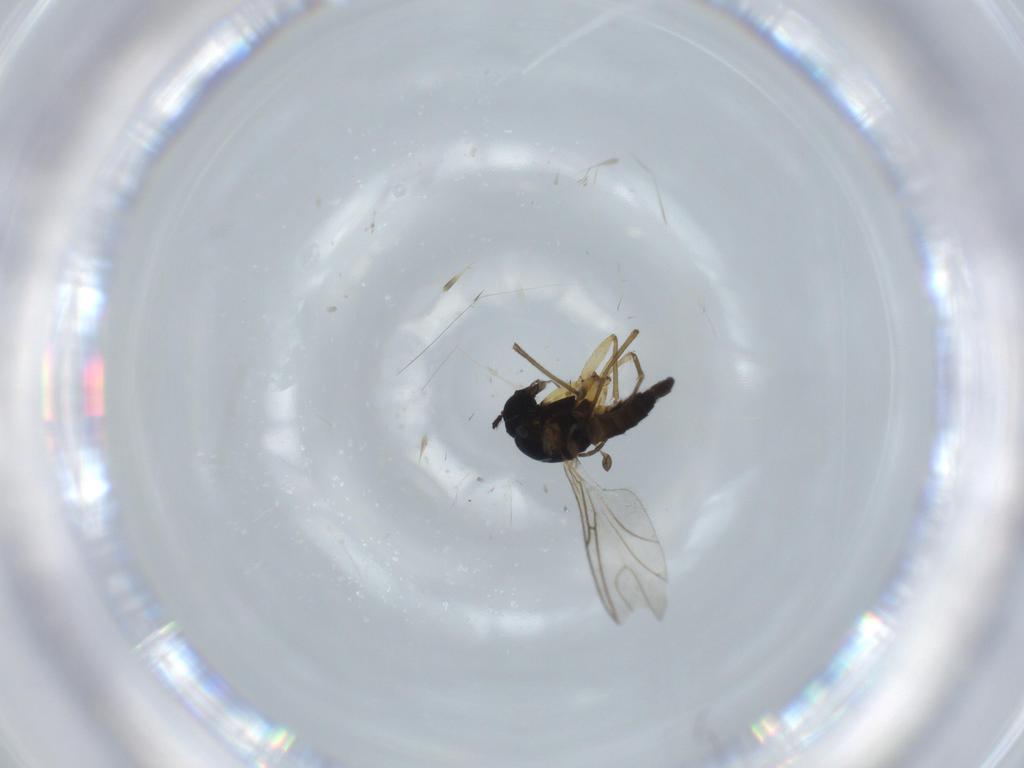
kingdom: Animalia
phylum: Arthropoda
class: Insecta
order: Diptera
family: Sciaridae
